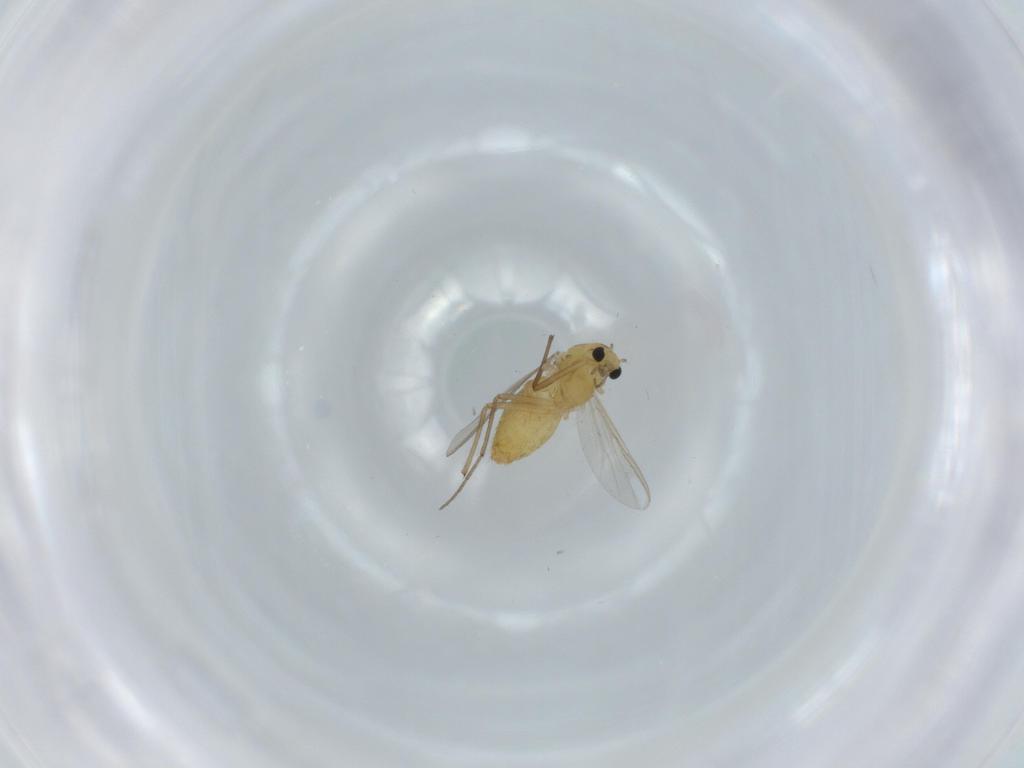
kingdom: Animalia
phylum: Arthropoda
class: Insecta
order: Diptera
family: Chironomidae
